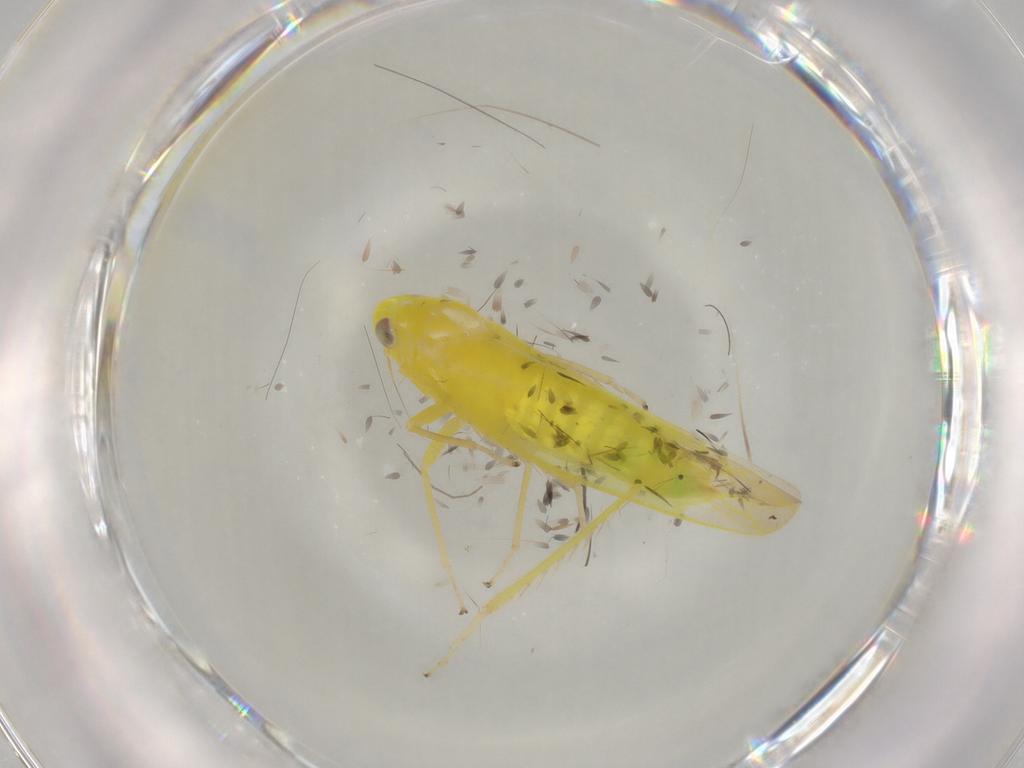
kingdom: Animalia
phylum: Arthropoda
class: Insecta
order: Hemiptera
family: Cicadellidae
